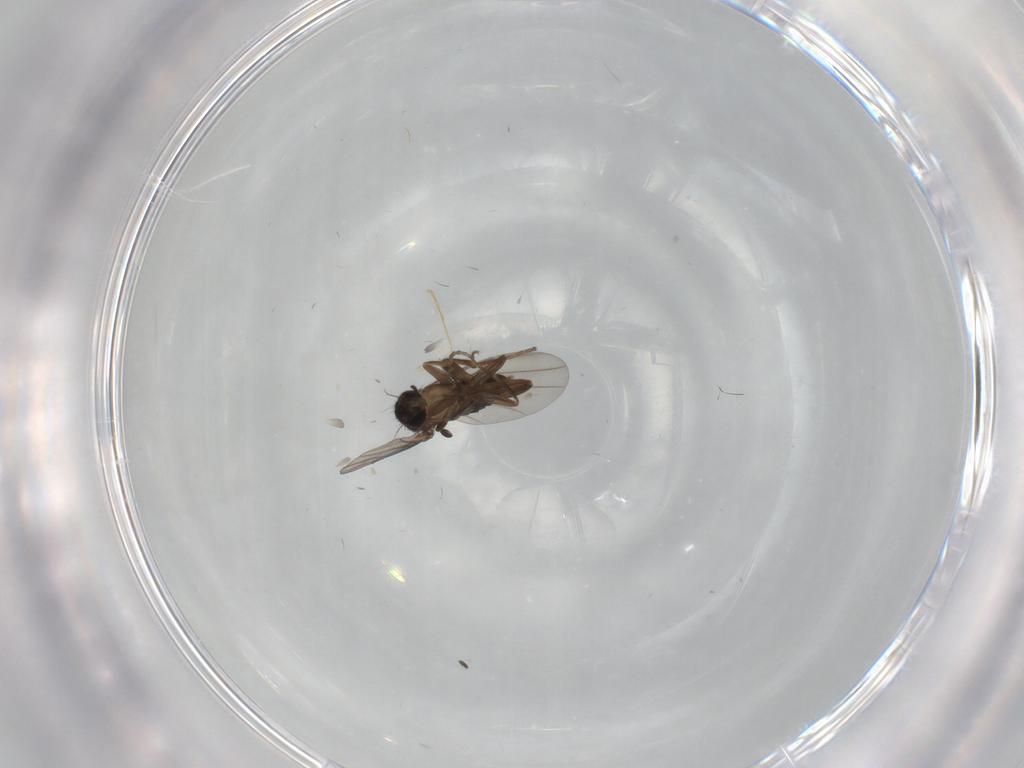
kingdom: Animalia
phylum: Arthropoda
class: Insecta
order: Diptera
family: Phoridae
